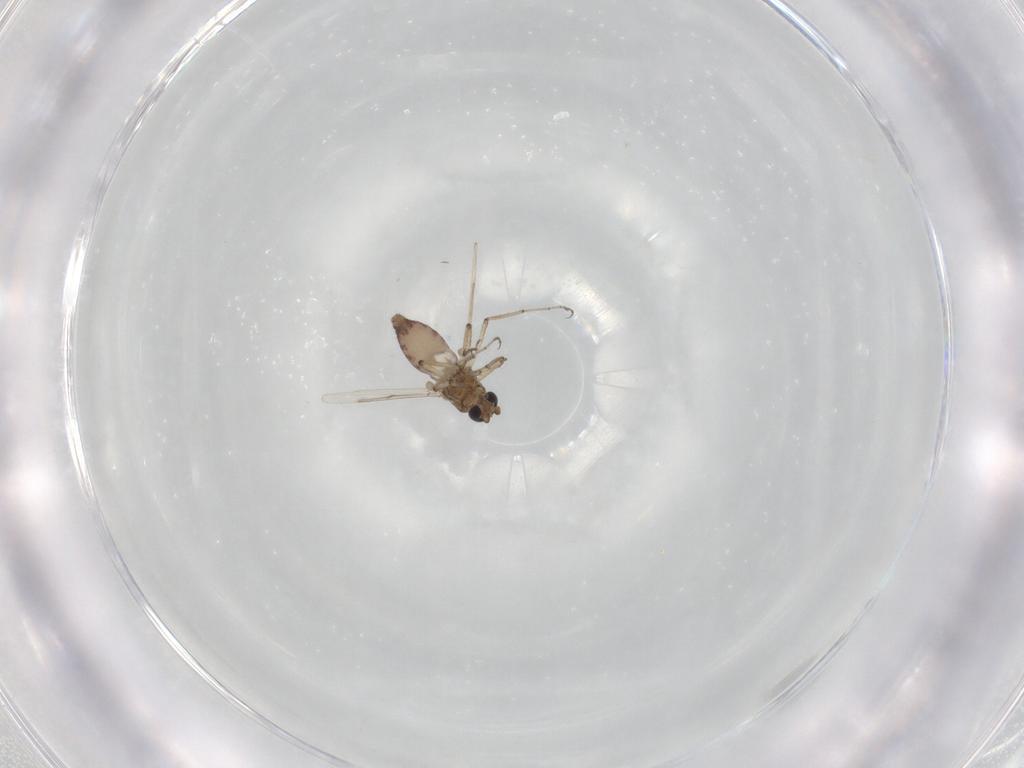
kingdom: Animalia
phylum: Arthropoda
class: Insecta
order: Diptera
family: Ceratopogonidae
